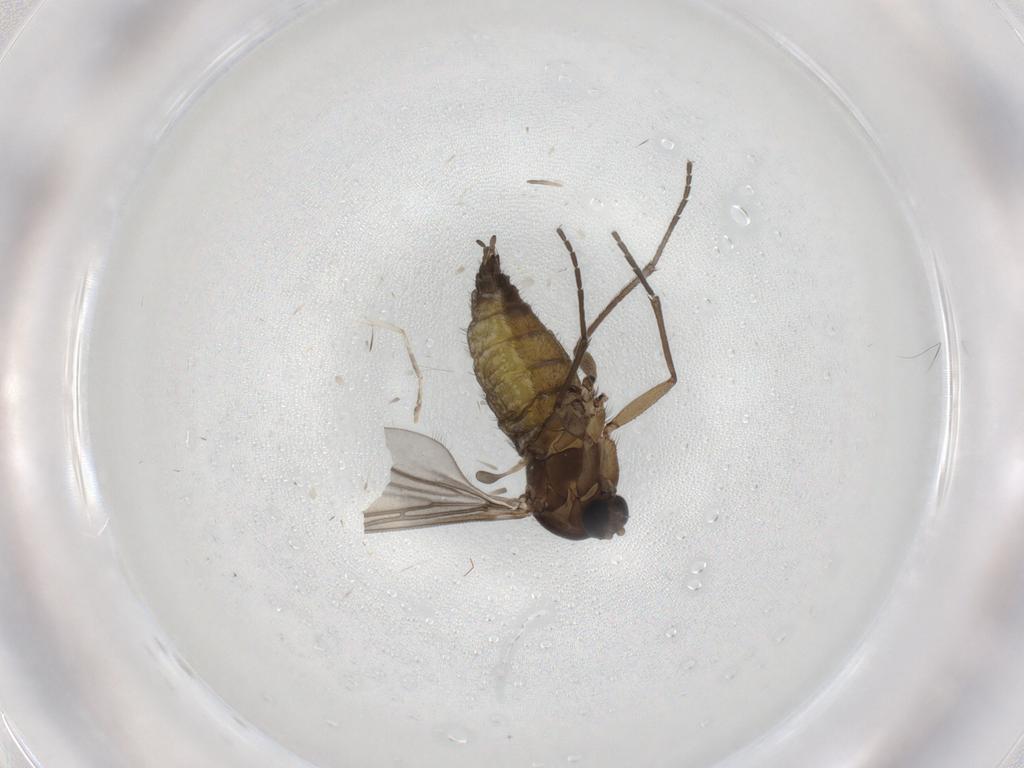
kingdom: Animalia
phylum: Arthropoda
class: Insecta
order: Diptera
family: Sciaridae
